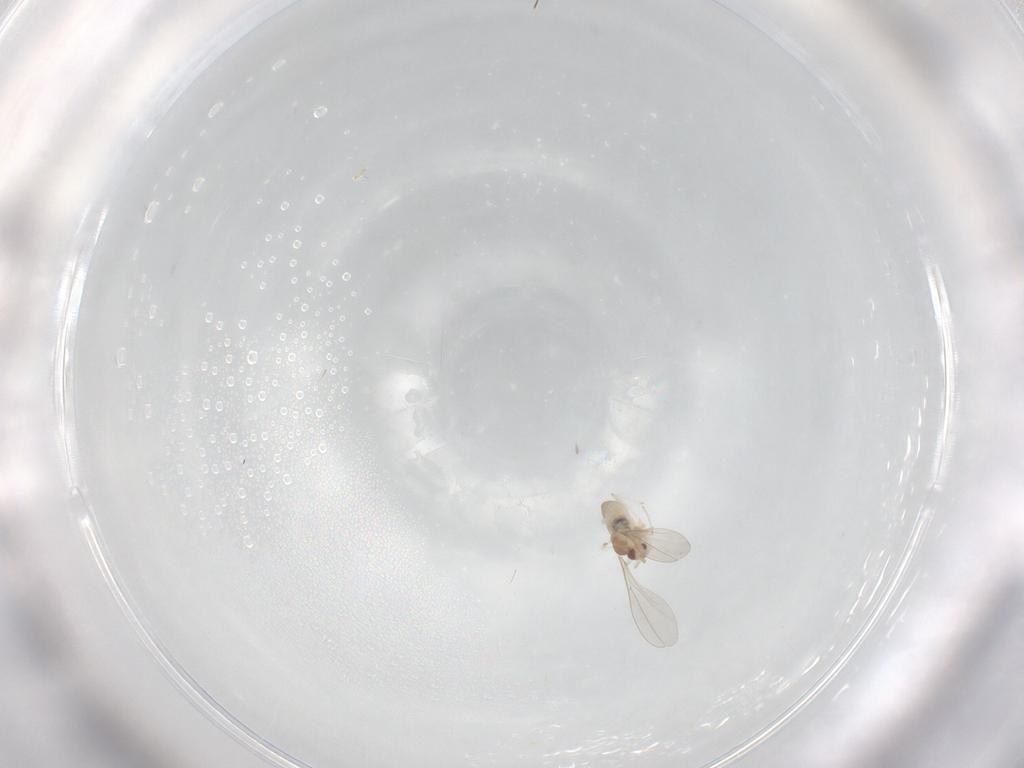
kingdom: Animalia
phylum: Arthropoda
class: Insecta
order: Diptera
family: Cecidomyiidae
